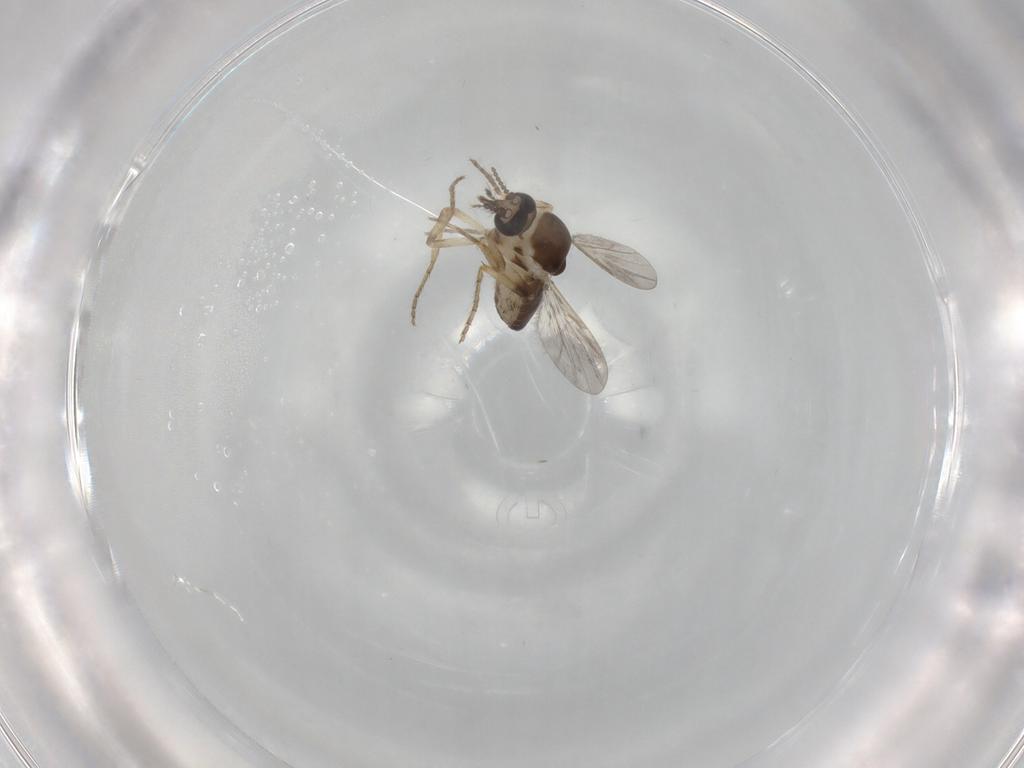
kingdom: Animalia
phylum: Arthropoda
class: Insecta
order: Diptera
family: Ceratopogonidae
